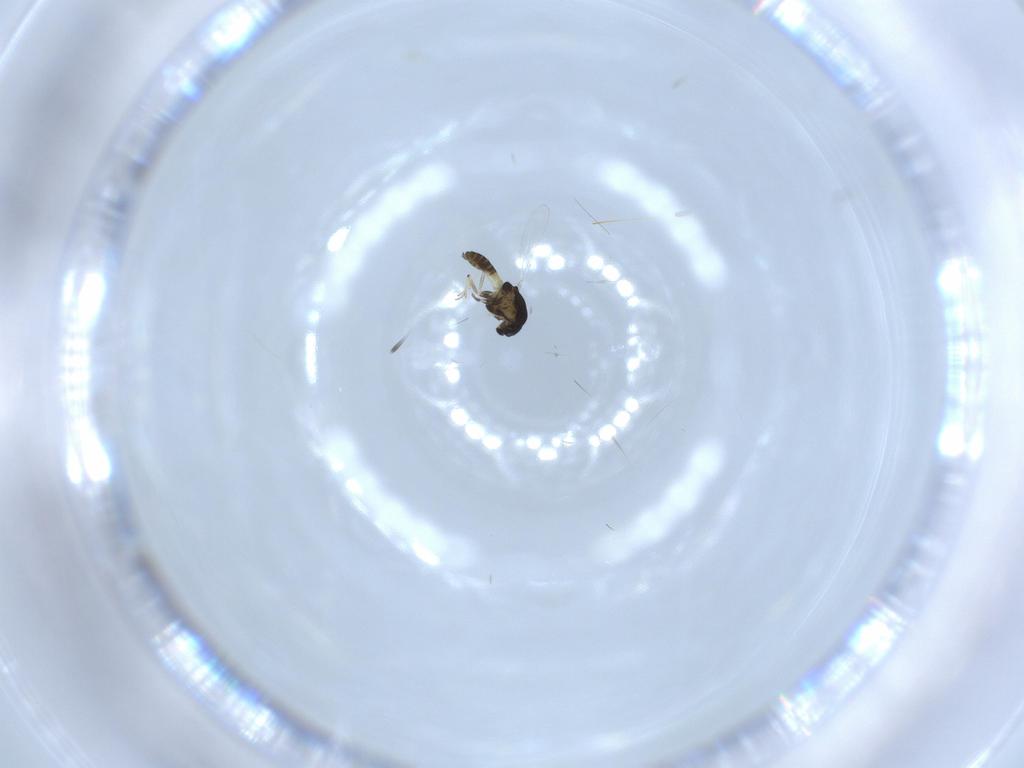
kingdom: Animalia
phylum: Arthropoda
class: Insecta
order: Diptera
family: Chironomidae
